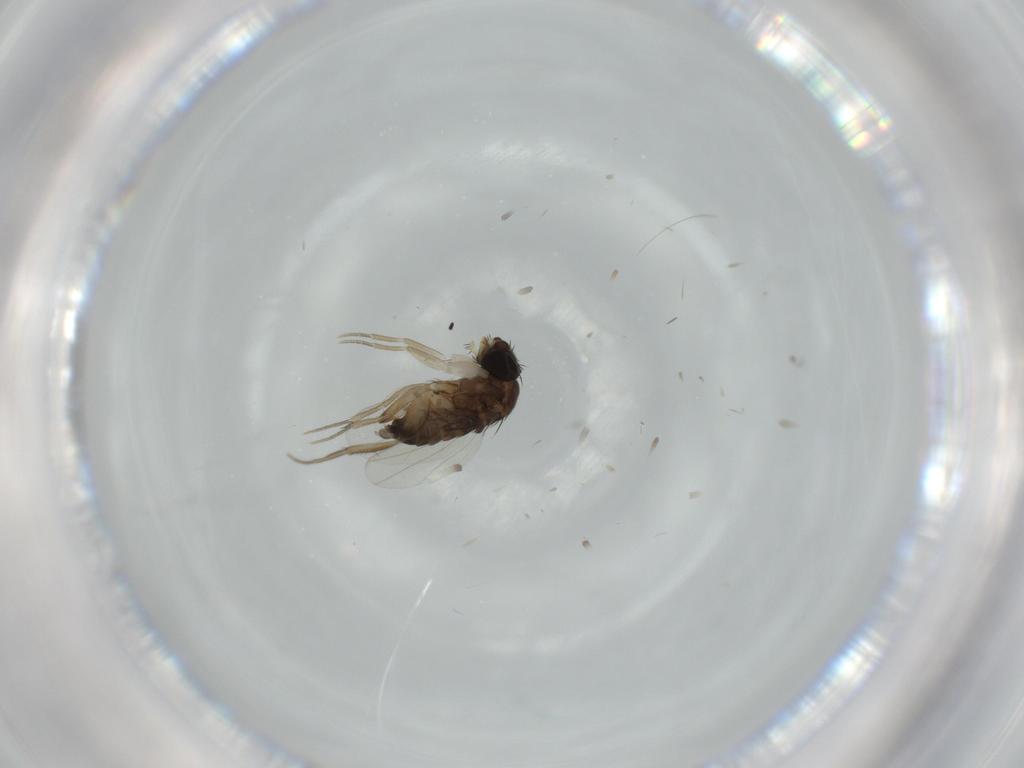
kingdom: Animalia
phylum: Arthropoda
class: Insecta
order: Diptera
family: Phoridae
